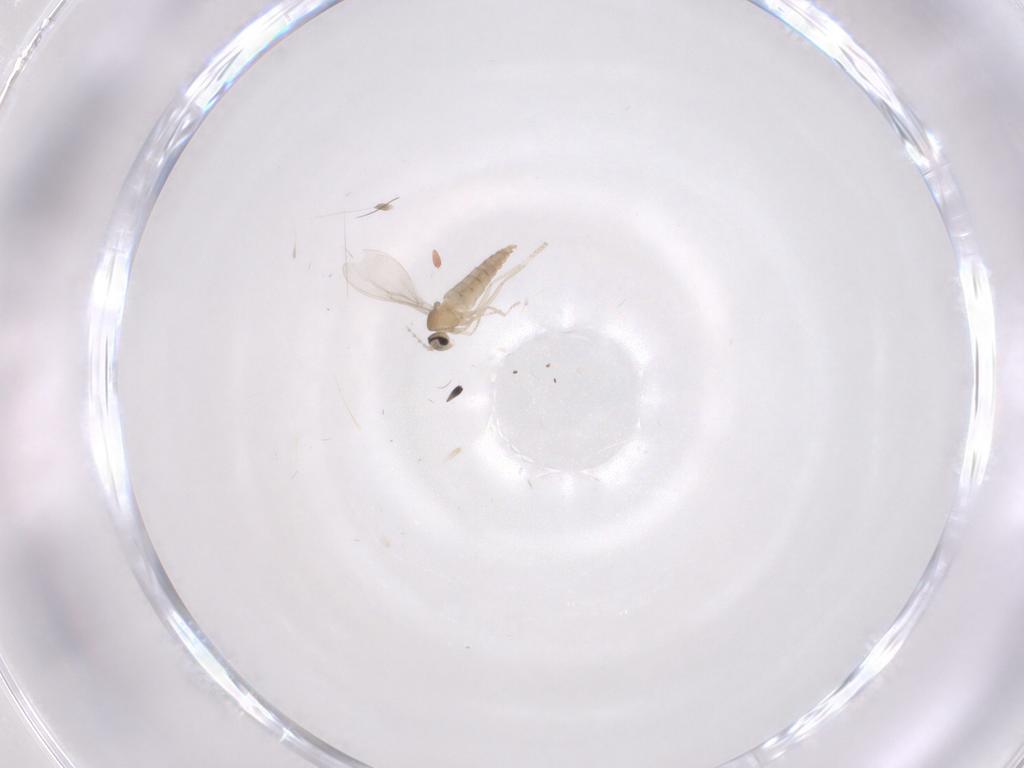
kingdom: Animalia
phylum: Arthropoda
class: Insecta
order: Diptera
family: Cecidomyiidae
